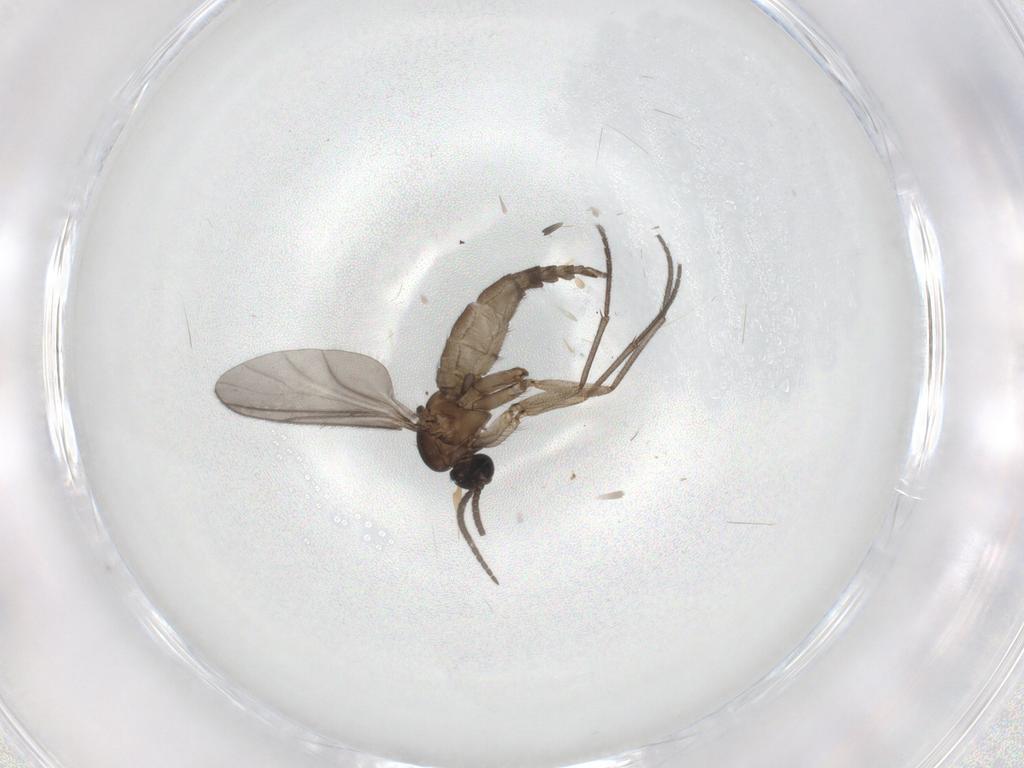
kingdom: Animalia
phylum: Arthropoda
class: Insecta
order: Diptera
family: Sciaridae
